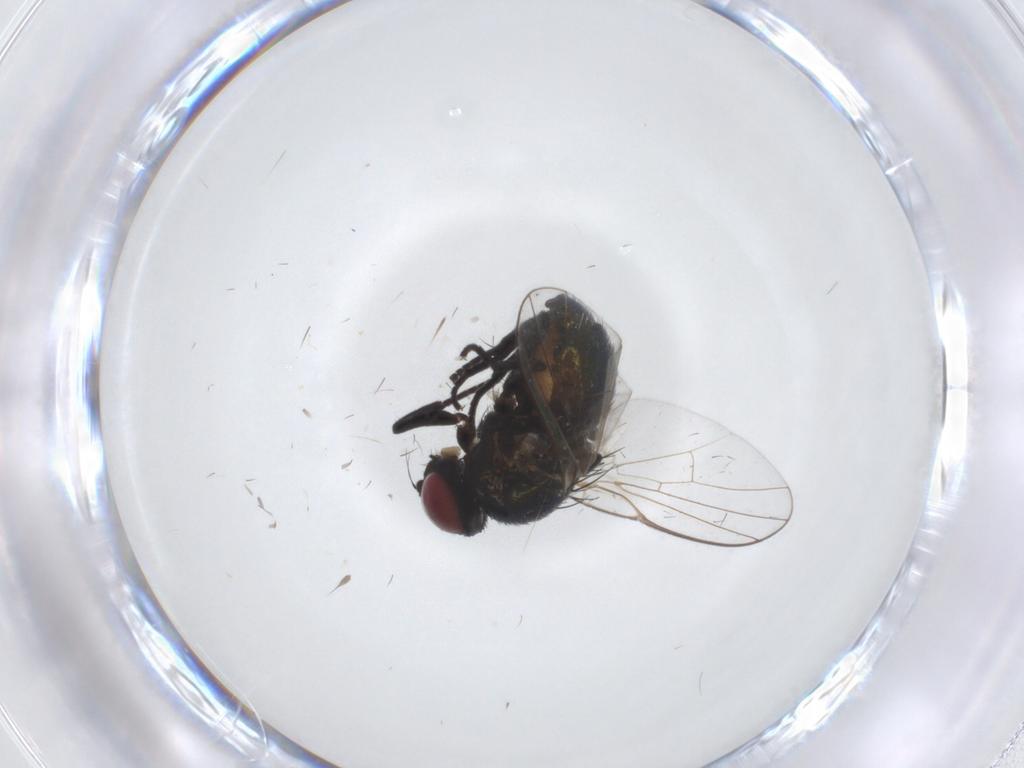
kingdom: Animalia
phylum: Arthropoda
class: Insecta
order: Diptera
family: Agromyzidae
